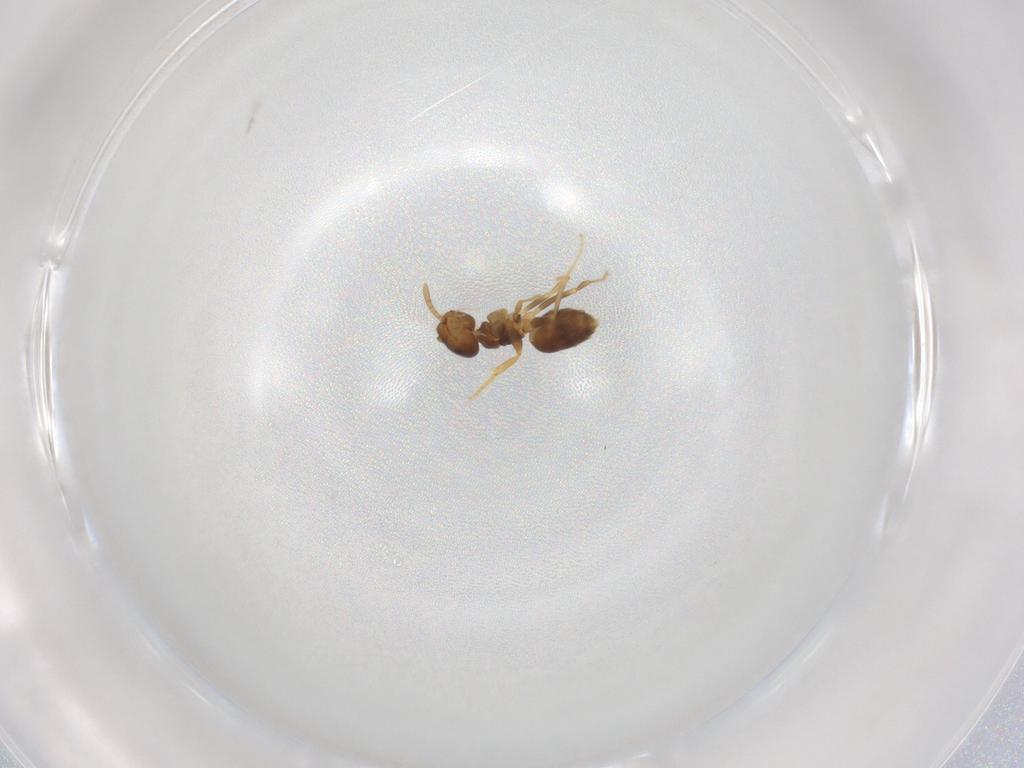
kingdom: Animalia
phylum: Arthropoda
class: Insecta
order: Hymenoptera
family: Formicidae
